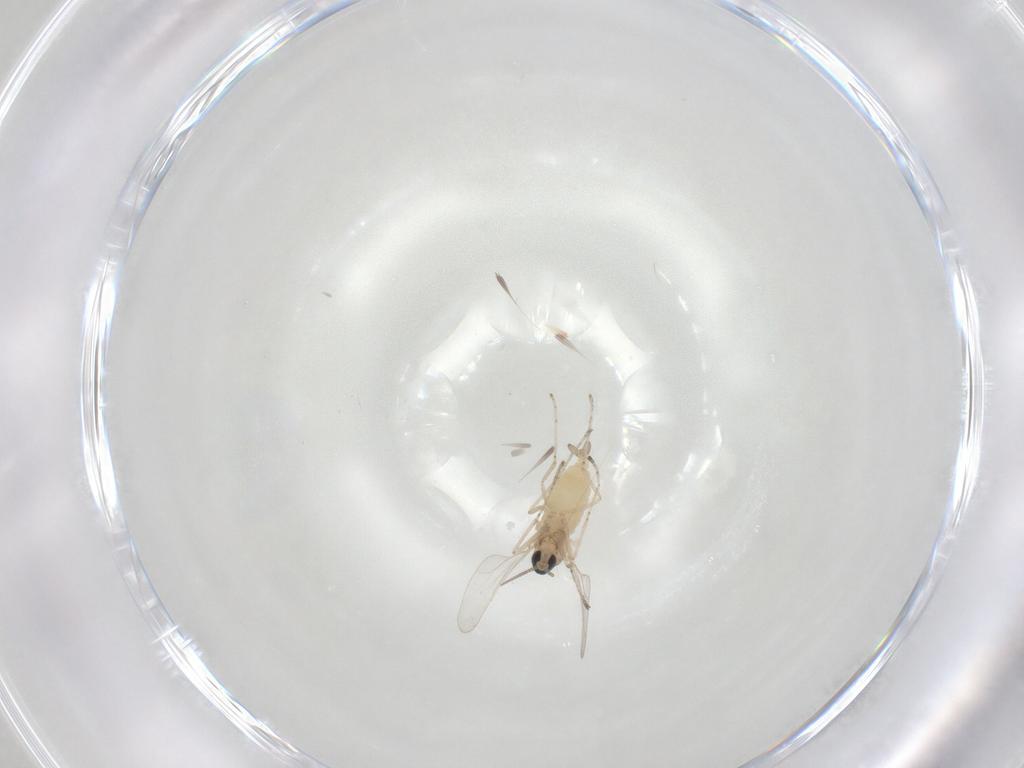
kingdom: Animalia
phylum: Arthropoda
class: Insecta
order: Diptera
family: Cecidomyiidae
